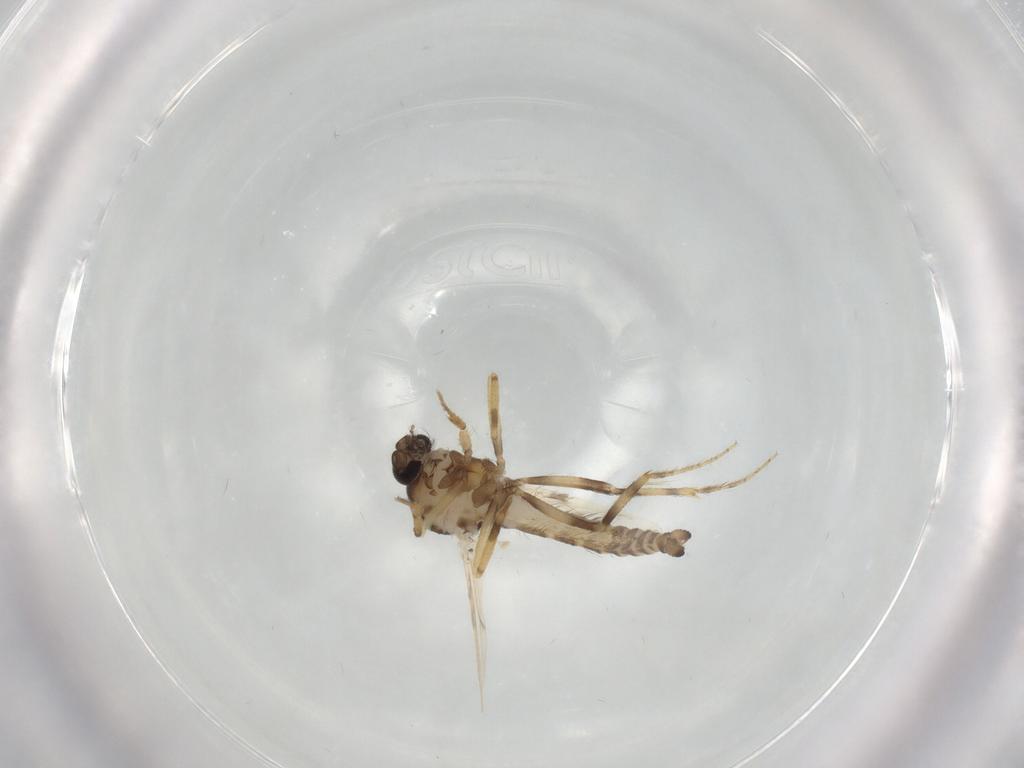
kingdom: Animalia
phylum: Arthropoda
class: Insecta
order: Diptera
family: Ceratopogonidae
